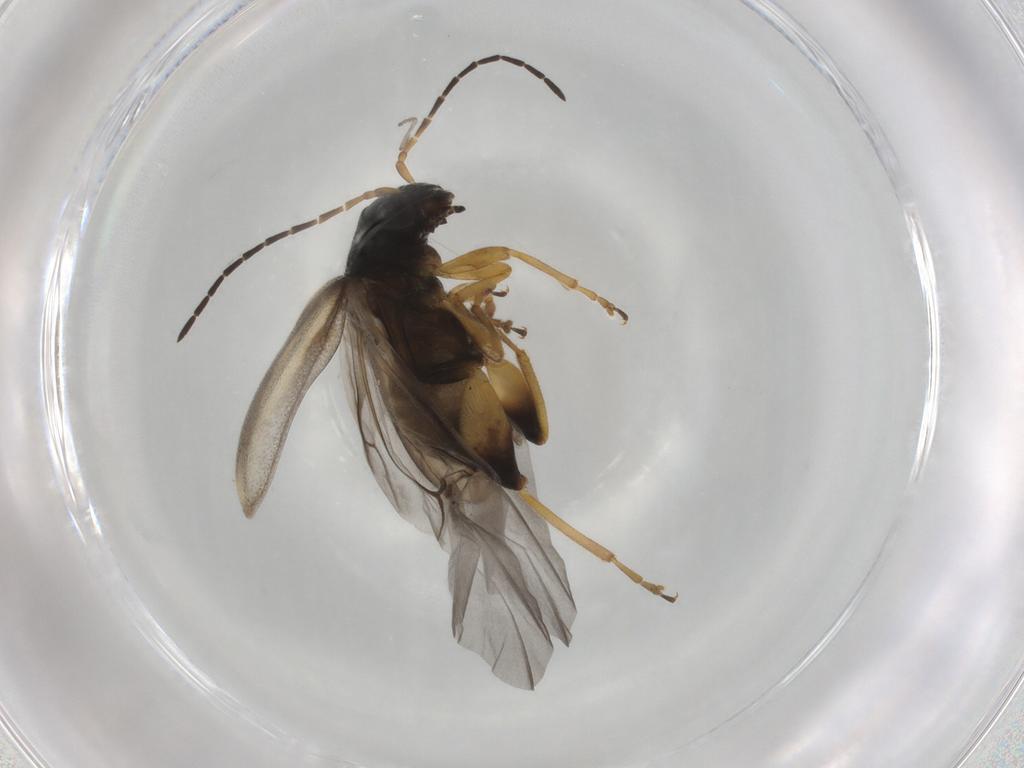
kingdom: Animalia
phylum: Arthropoda
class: Insecta
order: Coleoptera
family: Chrysomelidae
